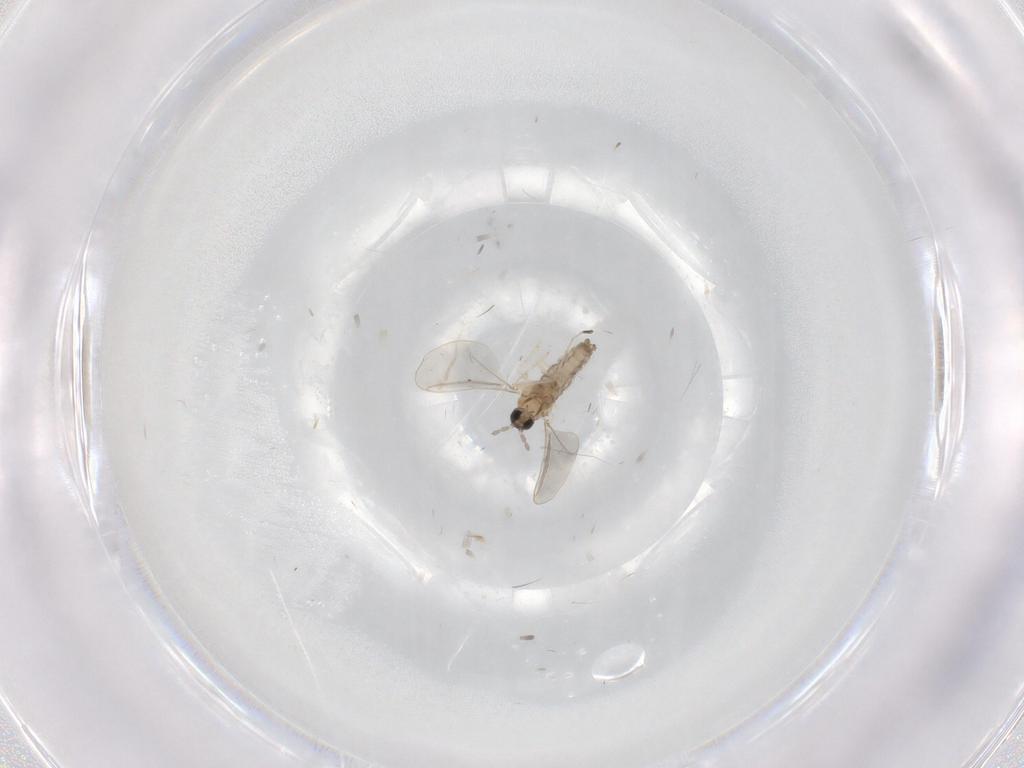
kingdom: Animalia
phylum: Arthropoda
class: Insecta
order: Diptera
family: Cecidomyiidae
